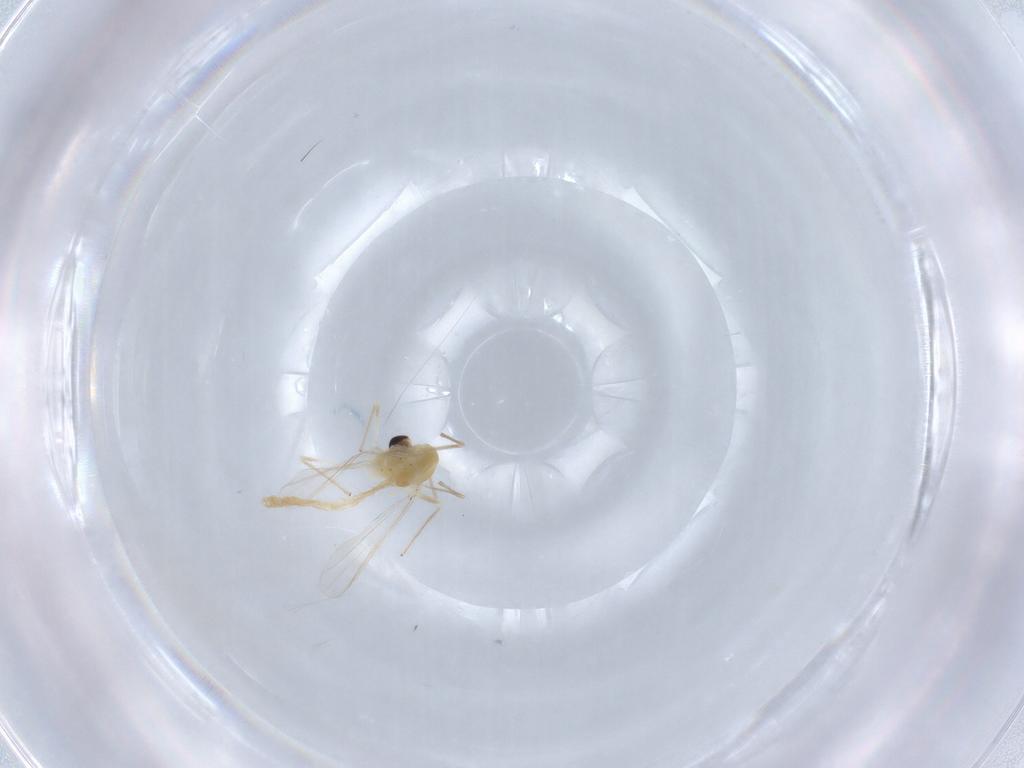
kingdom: Animalia
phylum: Arthropoda
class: Insecta
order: Diptera
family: Chironomidae
